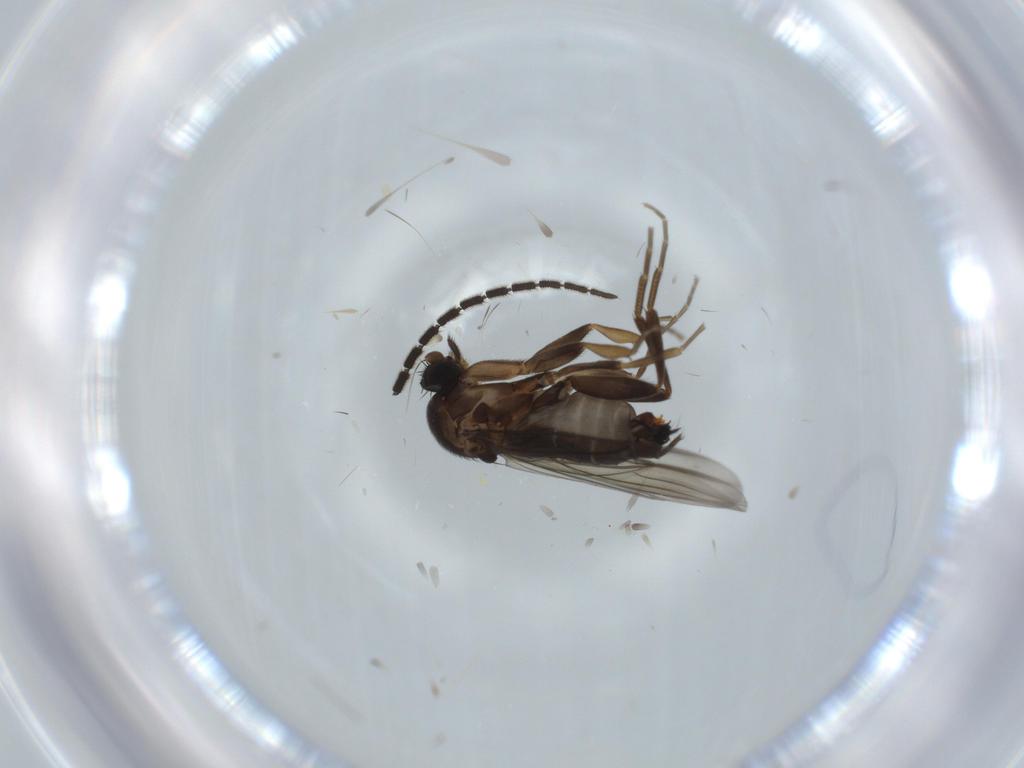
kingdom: Animalia
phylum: Arthropoda
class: Insecta
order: Diptera
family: Sciaridae
